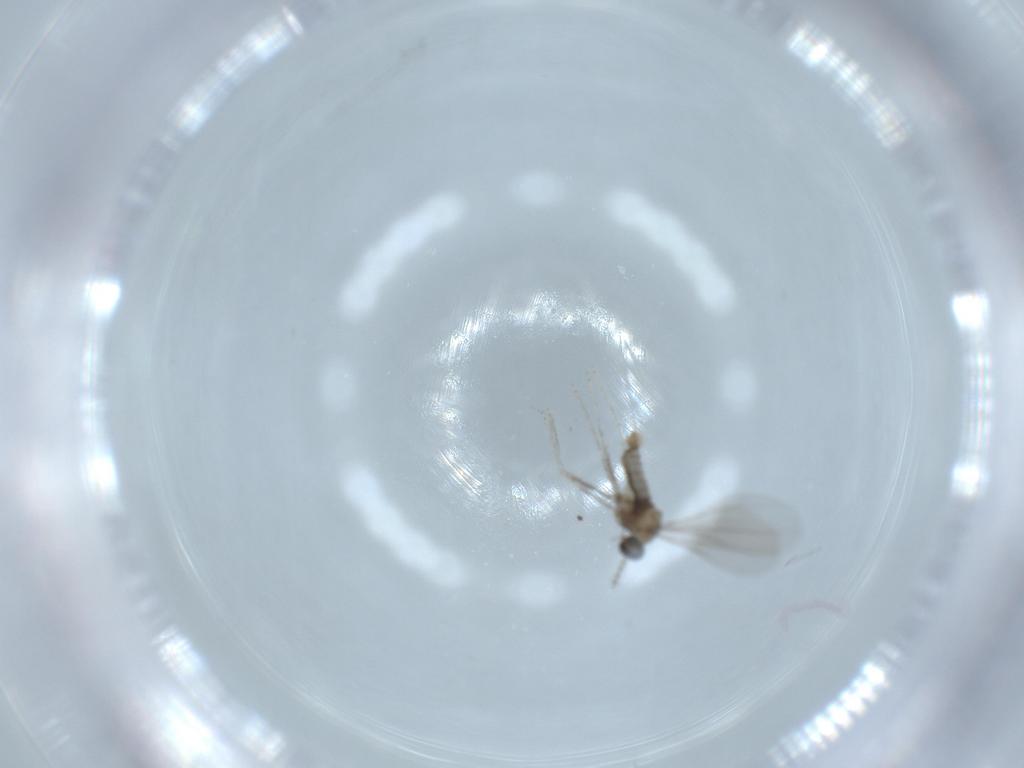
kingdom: Animalia
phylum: Arthropoda
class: Insecta
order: Diptera
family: Cecidomyiidae
